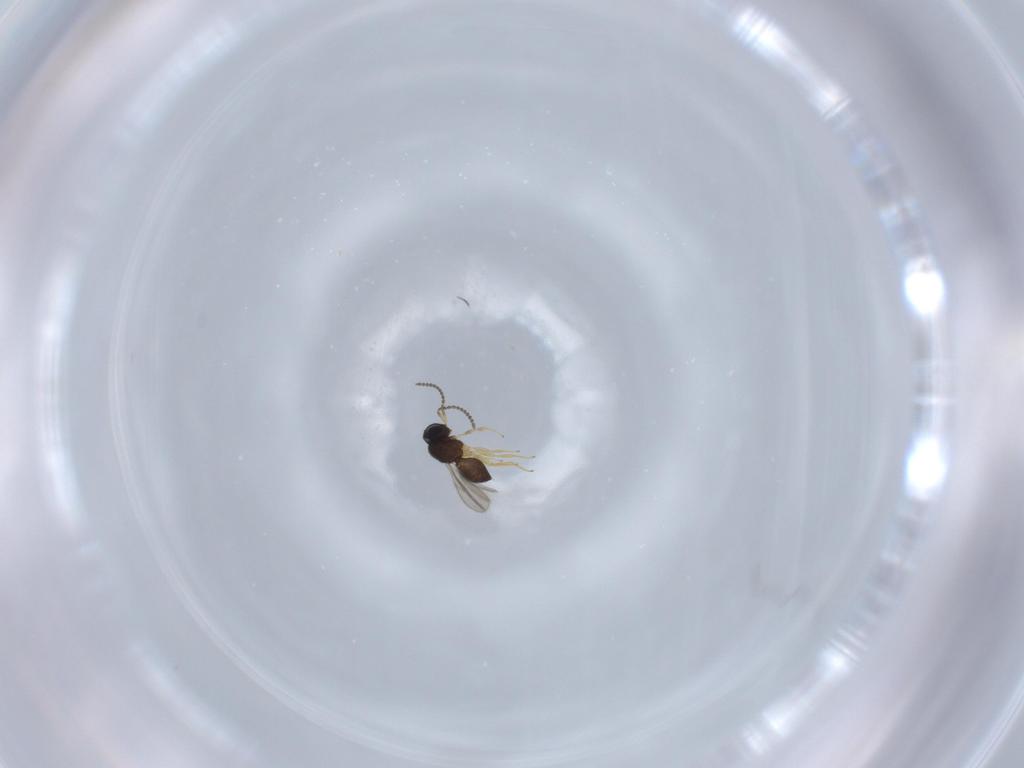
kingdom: Animalia
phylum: Arthropoda
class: Insecta
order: Hymenoptera
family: Scelionidae
